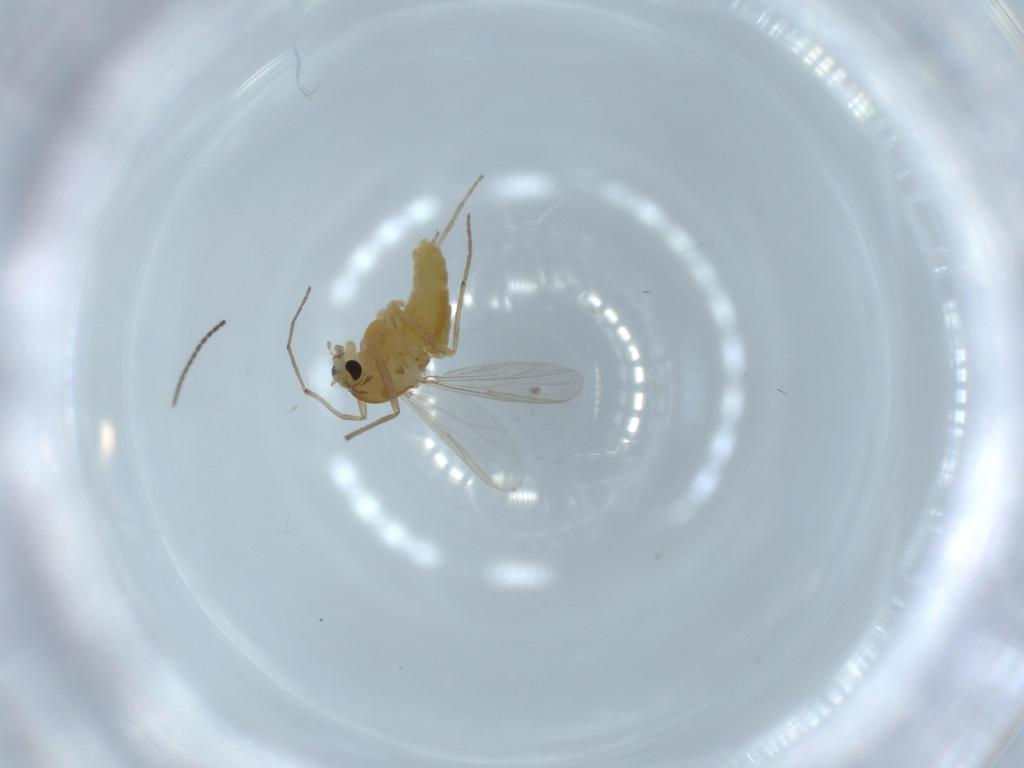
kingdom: Animalia
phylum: Arthropoda
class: Insecta
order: Diptera
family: Chironomidae
